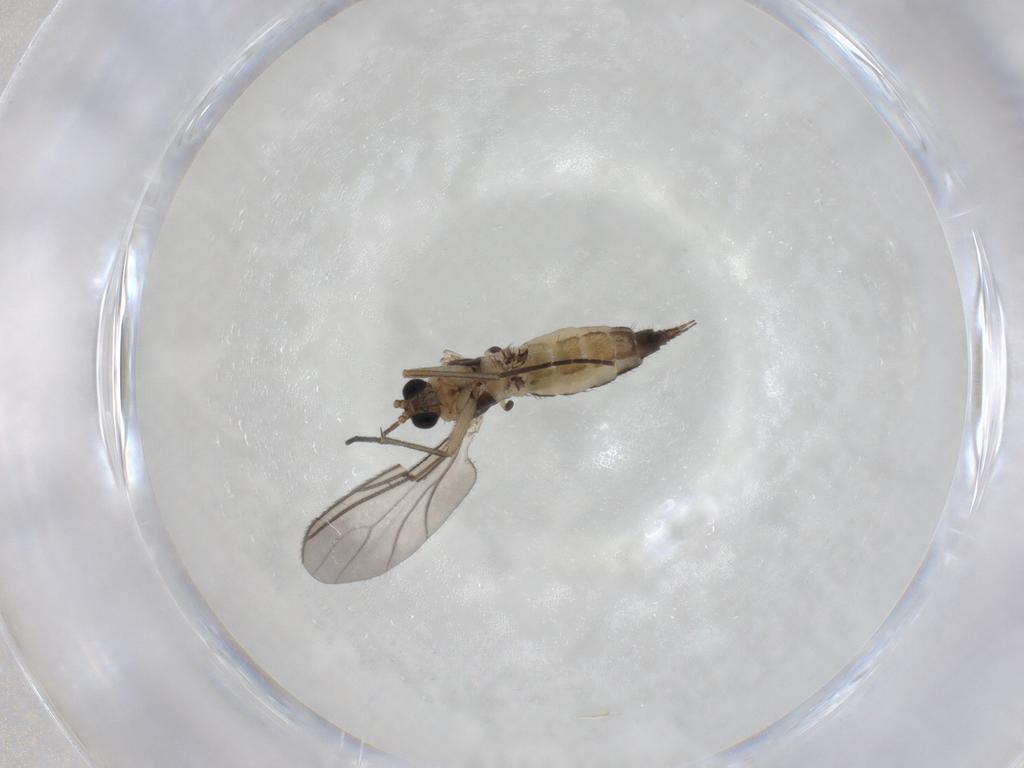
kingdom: Animalia
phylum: Arthropoda
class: Insecta
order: Diptera
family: Sciaridae
